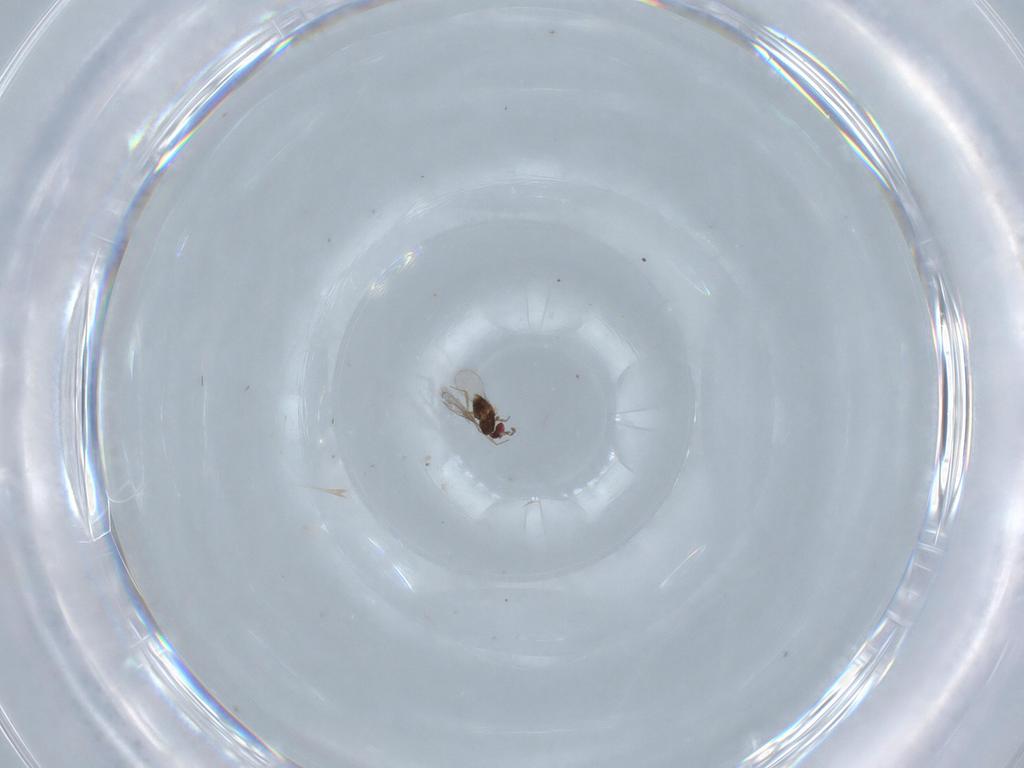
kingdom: Animalia
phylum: Arthropoda
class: Insecta
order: Hymenoptera
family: Trichogrammatidae
